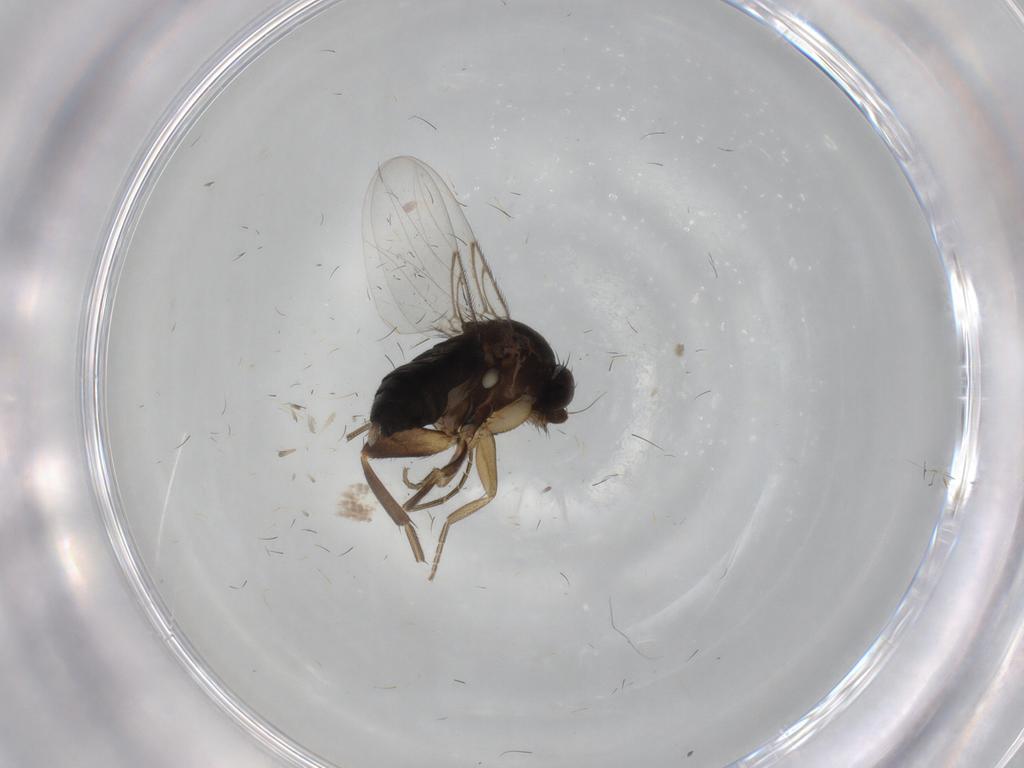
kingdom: Animalia
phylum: Arthropoda
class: Insecta
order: Diptera
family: Phoridae
